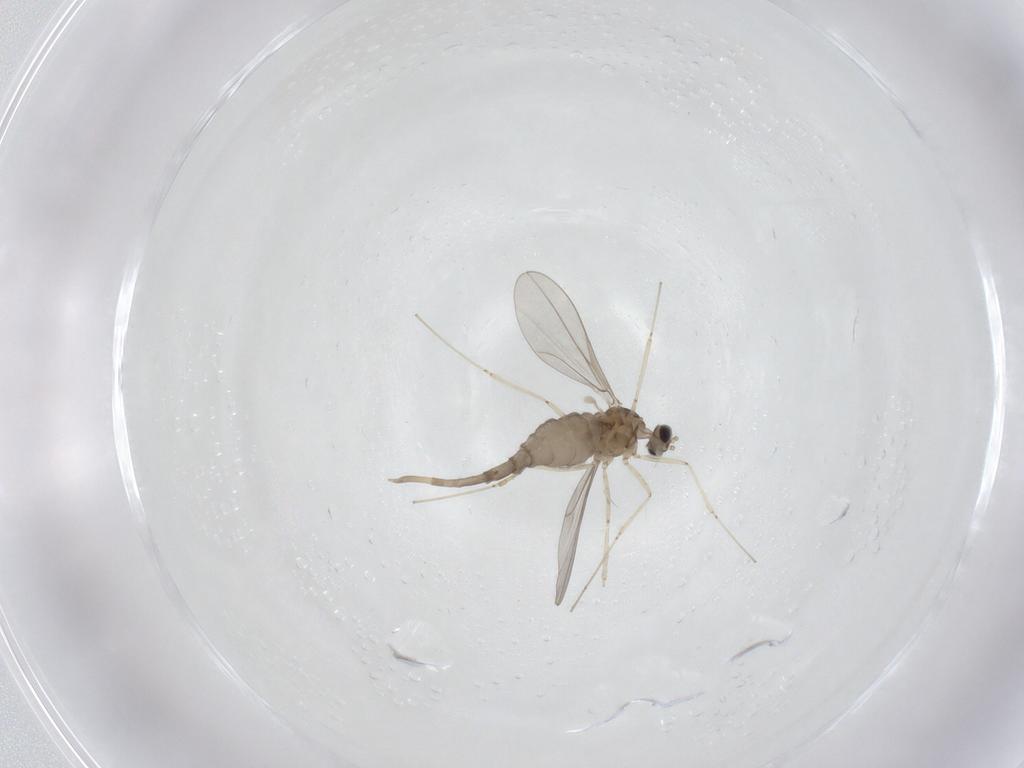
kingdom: Animalia
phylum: Arthropoda
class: Insecta
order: Diptera
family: Cecidomyiidae
